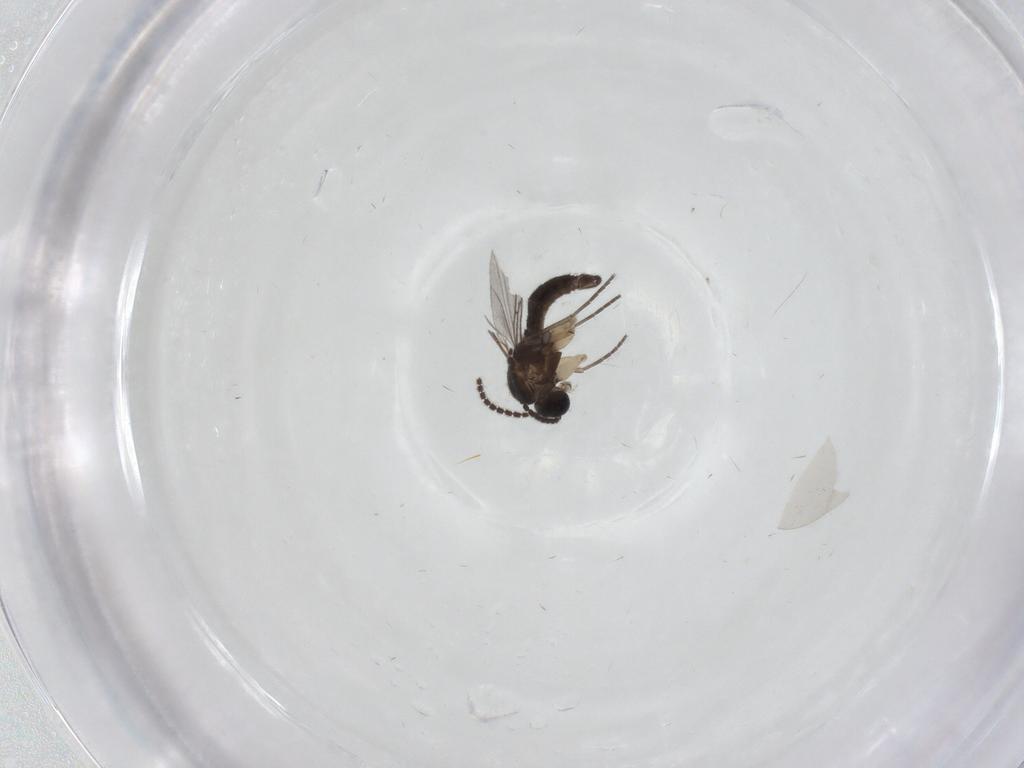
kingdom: Animalia
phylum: Arthropoda
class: Insecta
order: Diptera
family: Sciaridae
